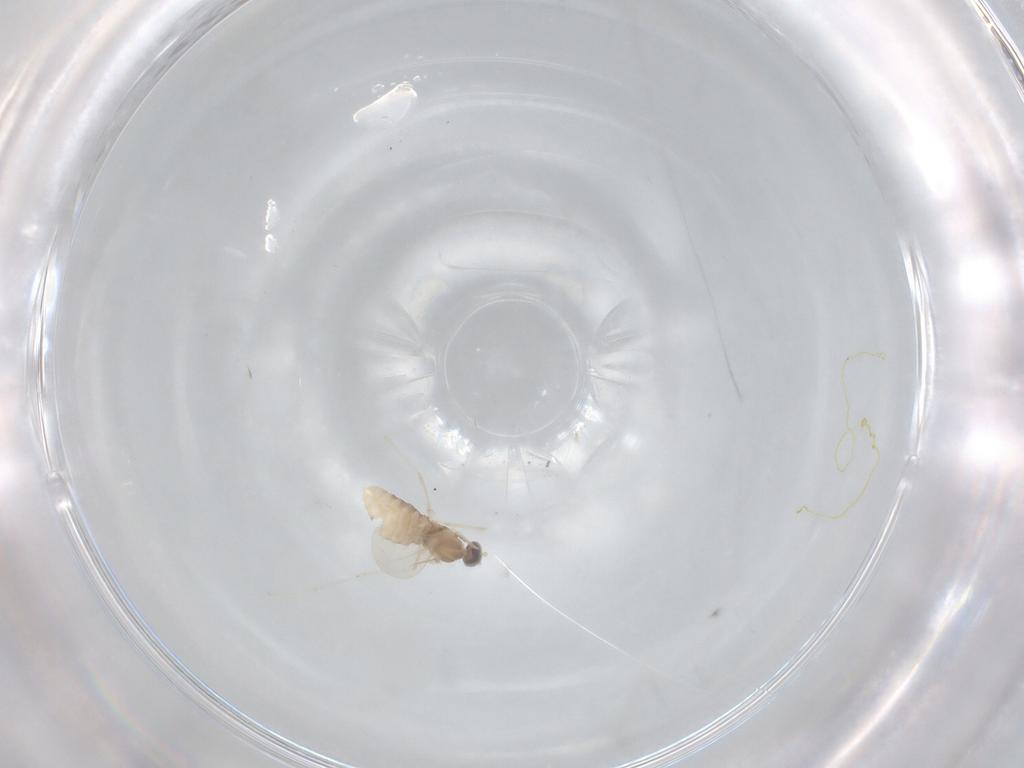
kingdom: Animalia
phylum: Arthropoda
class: Insecta
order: Diptera
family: Cecidomyiidae
